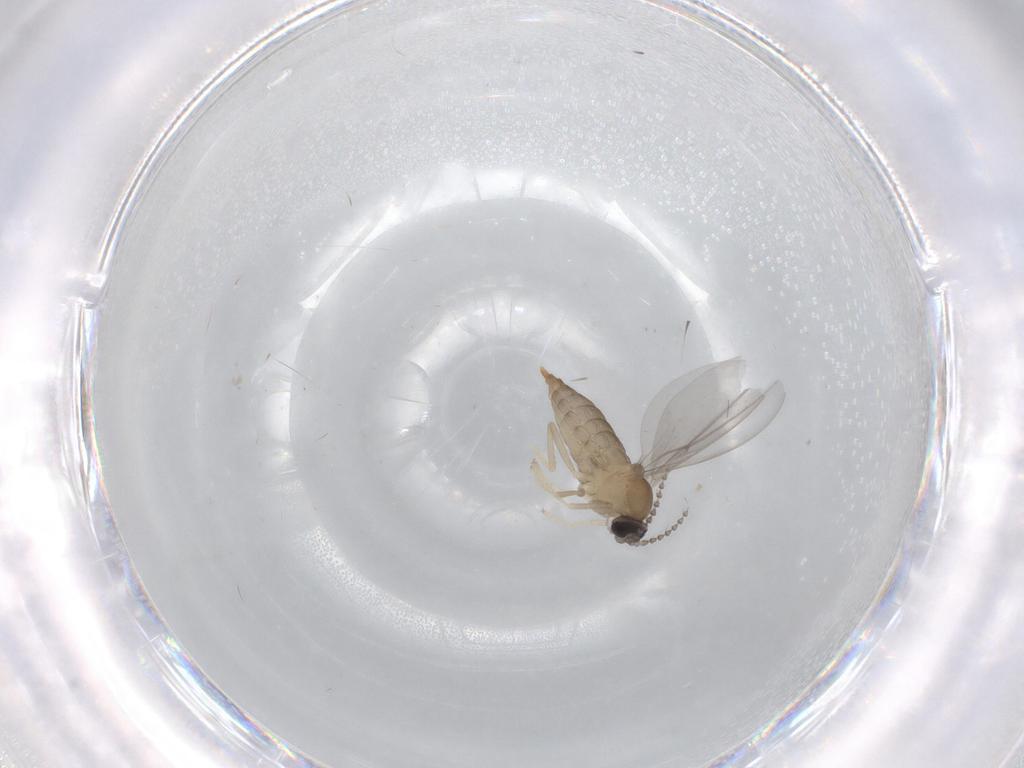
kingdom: Animalia
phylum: Arthropoda
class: Insecta
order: Diptera
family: Cecidomyiidae
